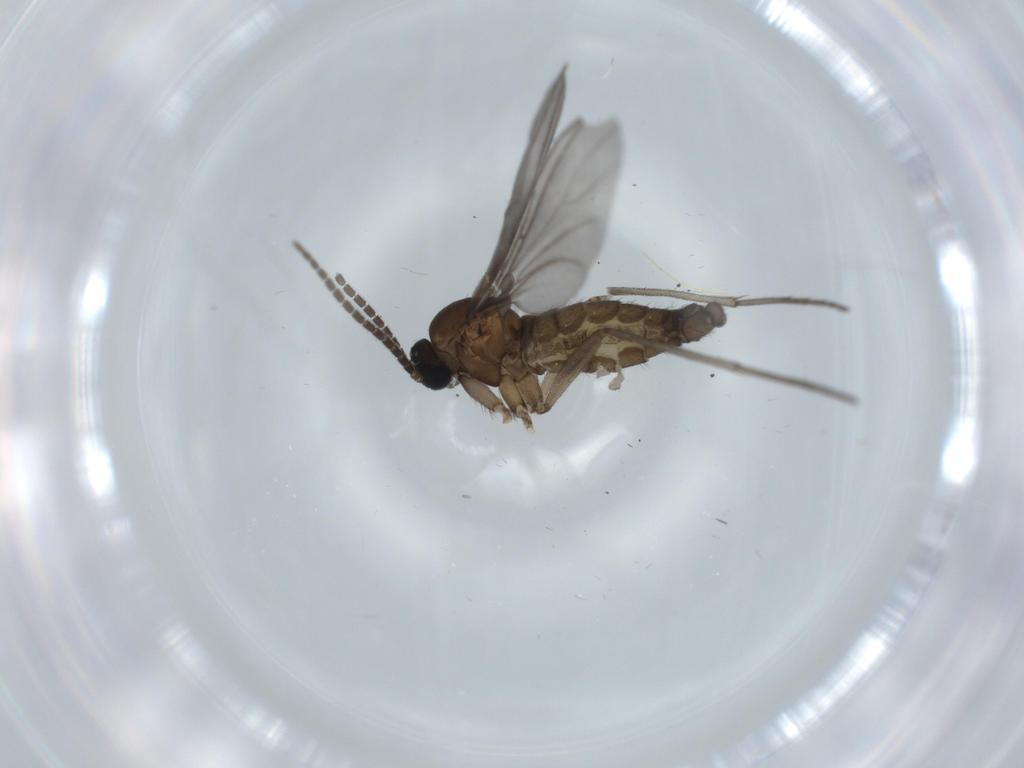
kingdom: Animalia
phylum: Arthropoda
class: Insecta
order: Diptera
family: Sciaridae
